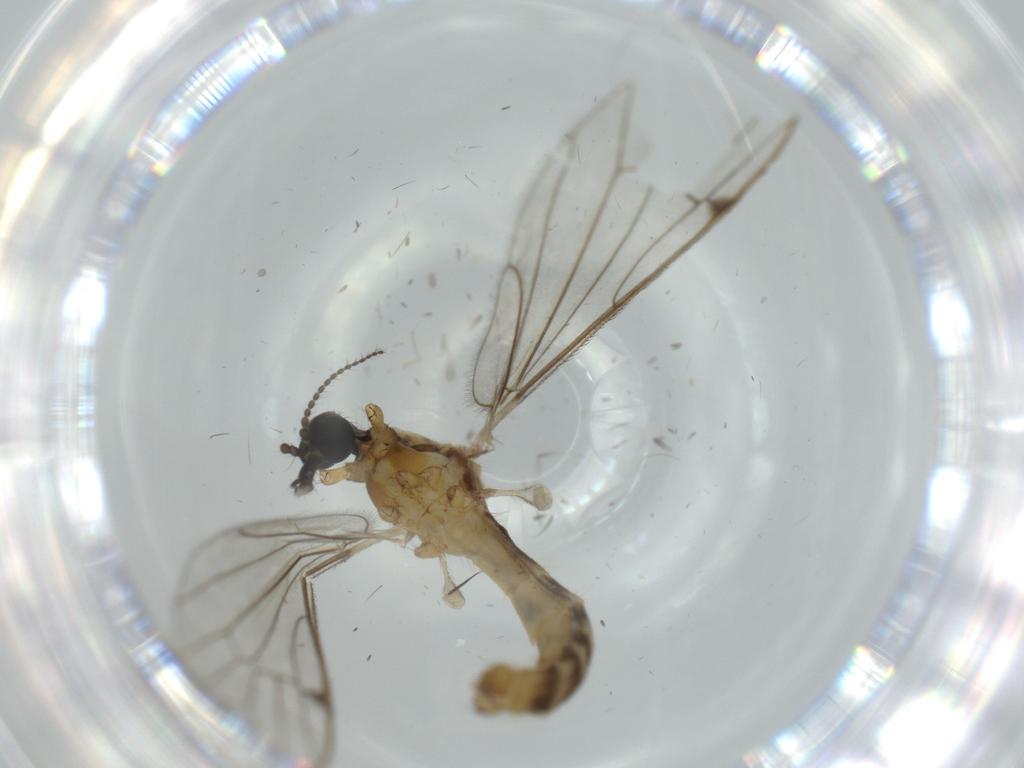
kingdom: Animalia
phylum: Arthropoda
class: Insecta
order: Diptera
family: Limoniidae
